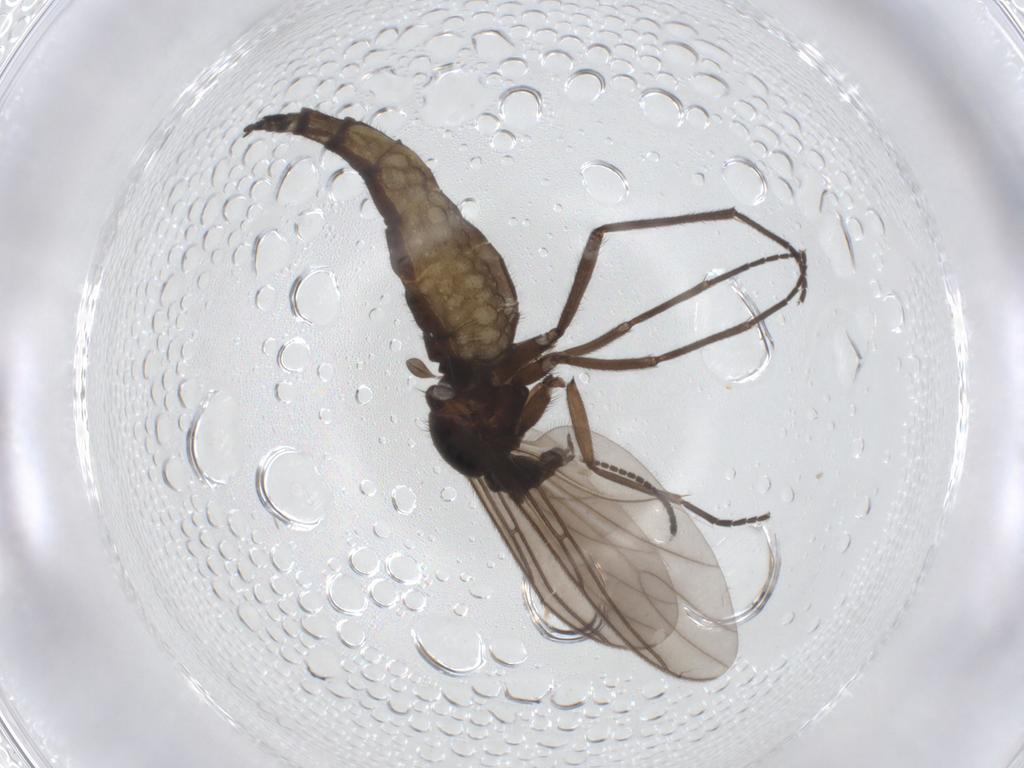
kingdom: Animalia
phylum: Arthropoda
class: Insecta
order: Diptera
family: Sciaridae
